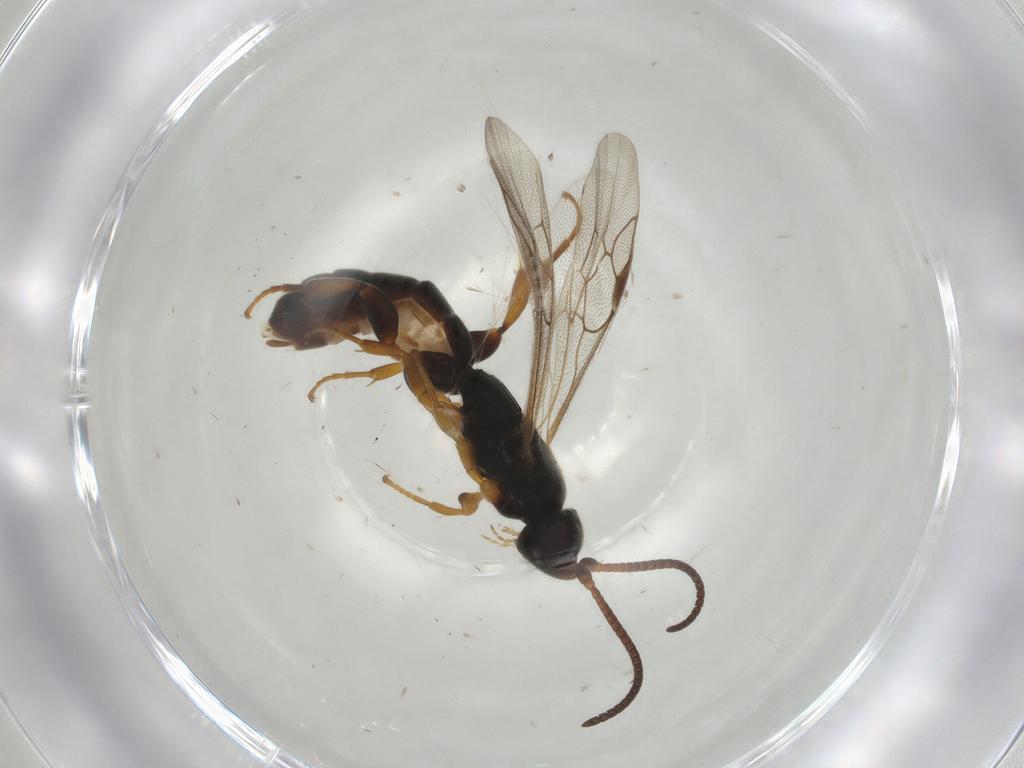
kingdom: Animalia
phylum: Arthropoda
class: Insecta
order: Hymenoptera
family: Ichneumonidae
